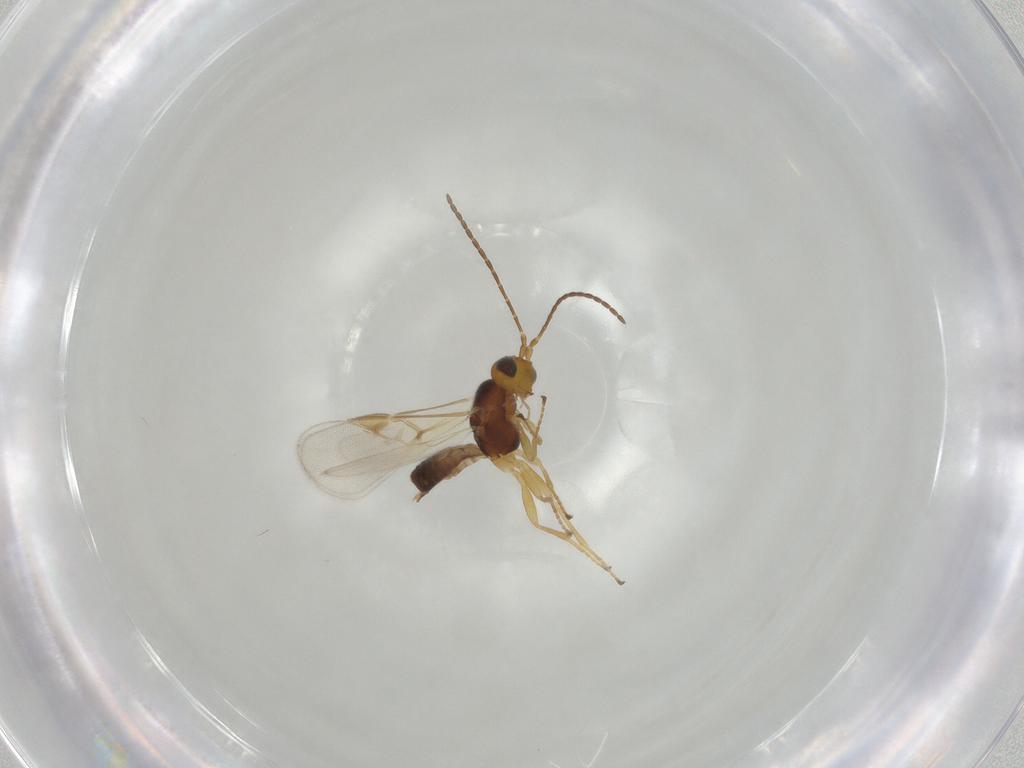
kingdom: Animalia
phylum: Arthropoda
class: Insecta
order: Hymenoptera
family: Braconidae
